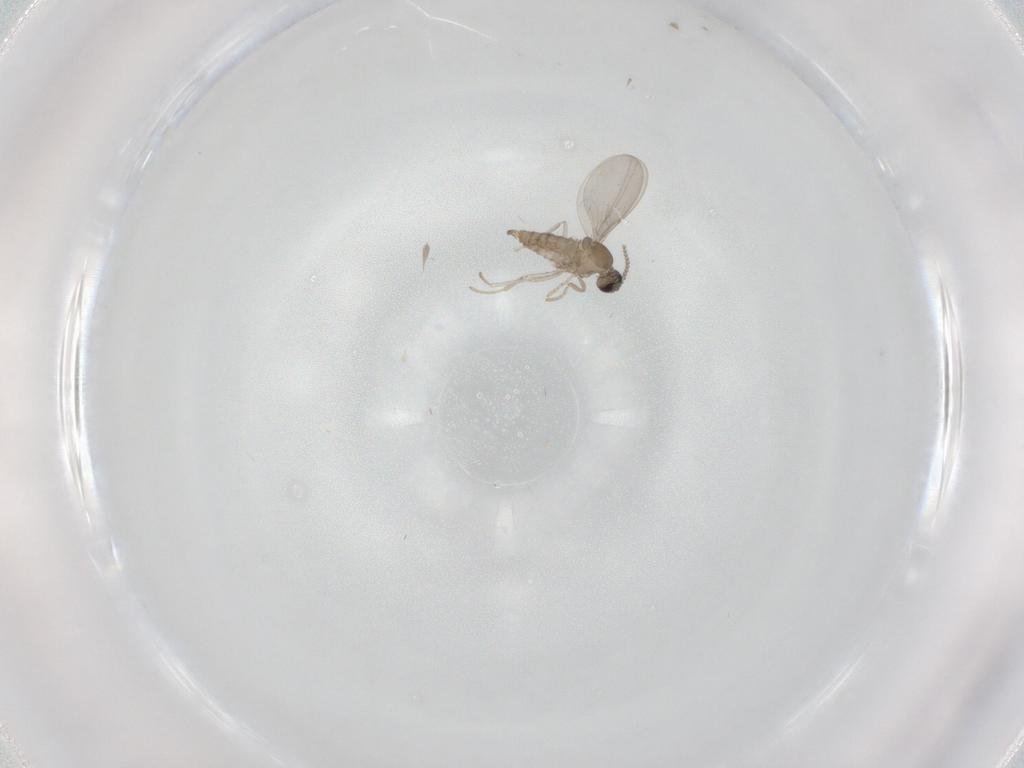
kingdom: Animalia
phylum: Arthropoda
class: Insecta
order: Diptera
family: Cecidomyiidae
